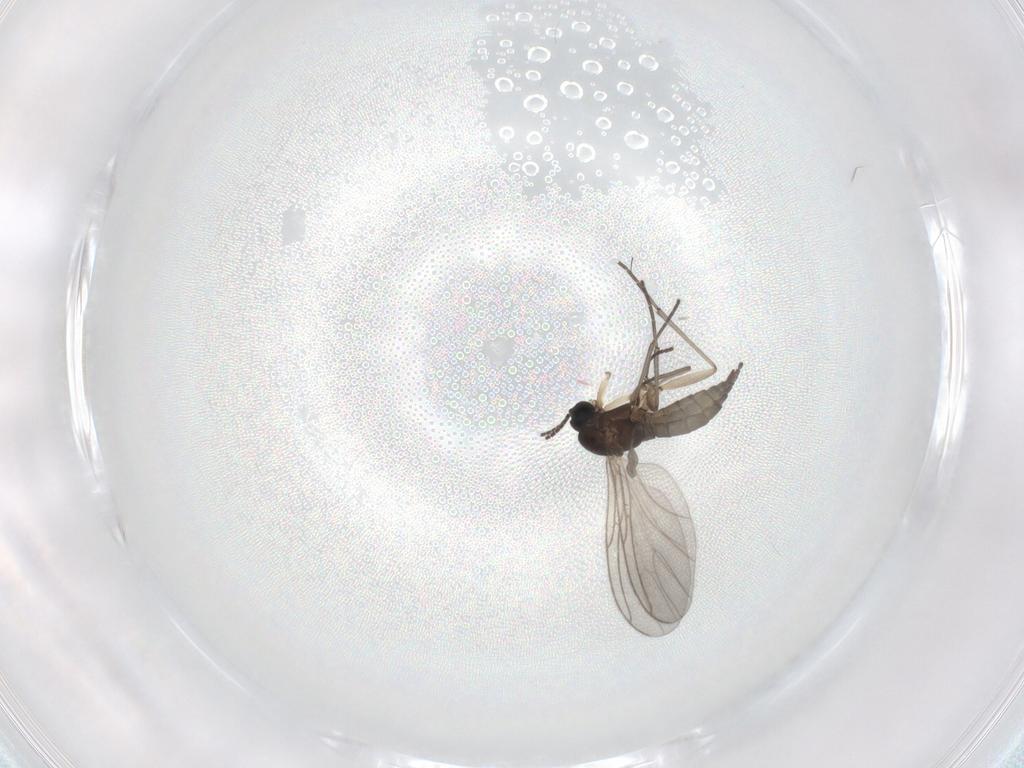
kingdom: Animalia
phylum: Arthropoda
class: Insecta
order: Diptera
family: Sciaridae
